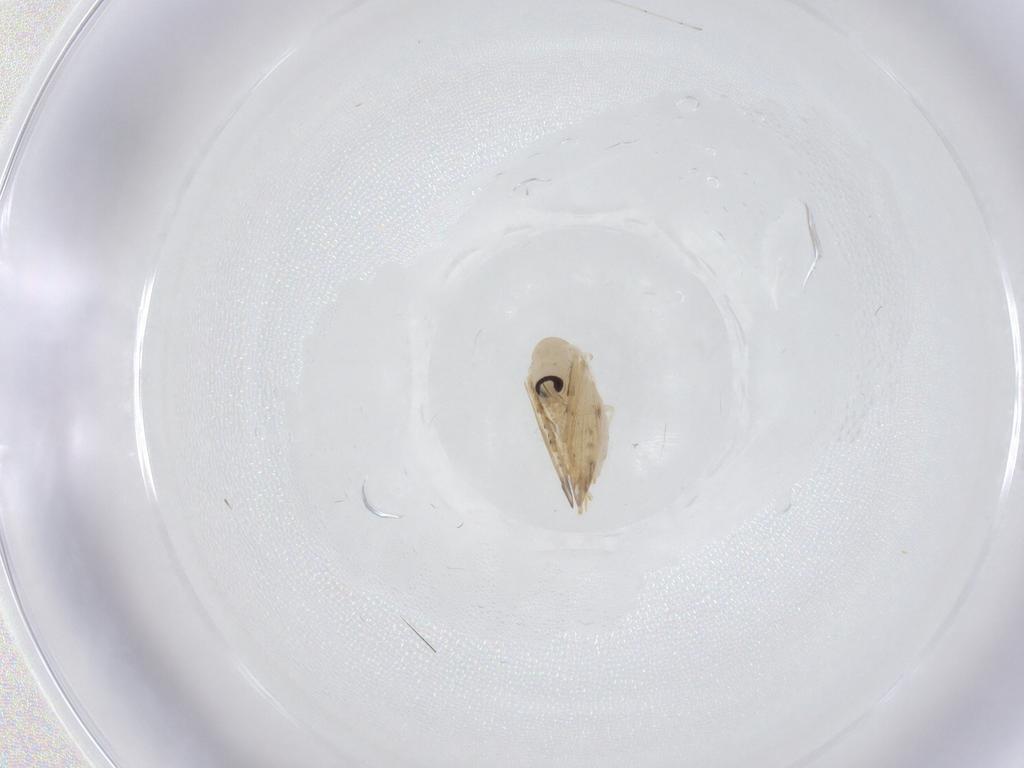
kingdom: Animalia
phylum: Arthropoda
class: Insecta
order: Diptera
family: Psychodidae
